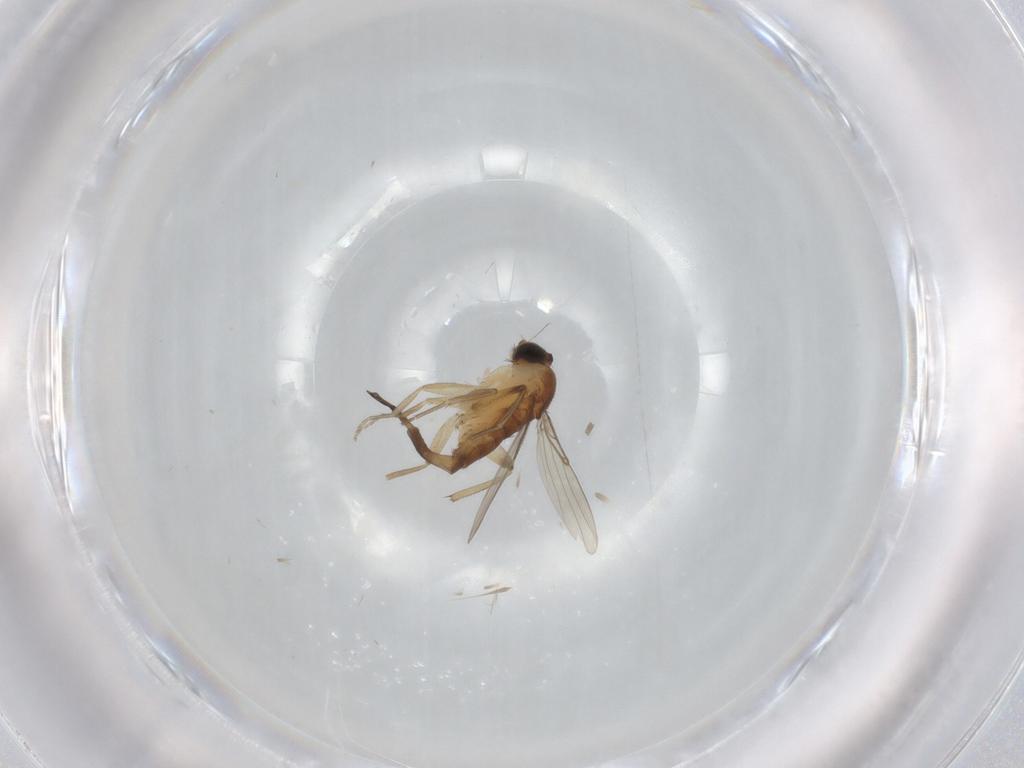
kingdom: Animalia
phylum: Arthropoda
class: Insecta
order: Diptera
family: Phoridae
